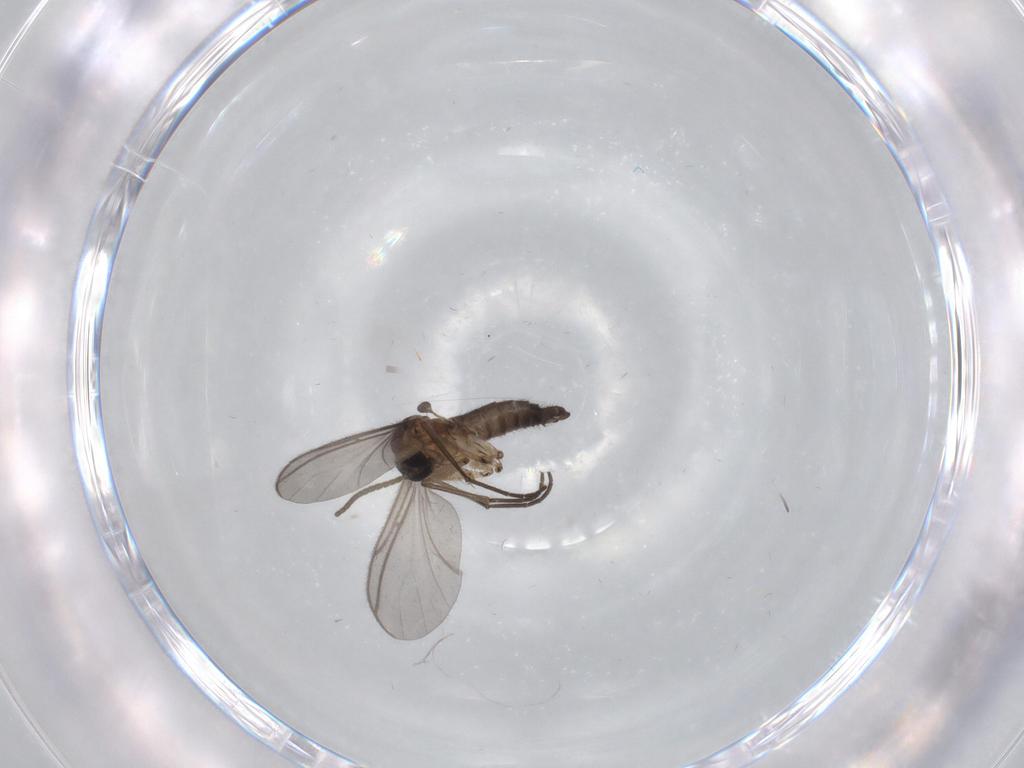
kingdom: Animalia
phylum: Arthropoda
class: Insecta
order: Diptera
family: Sciaridae
